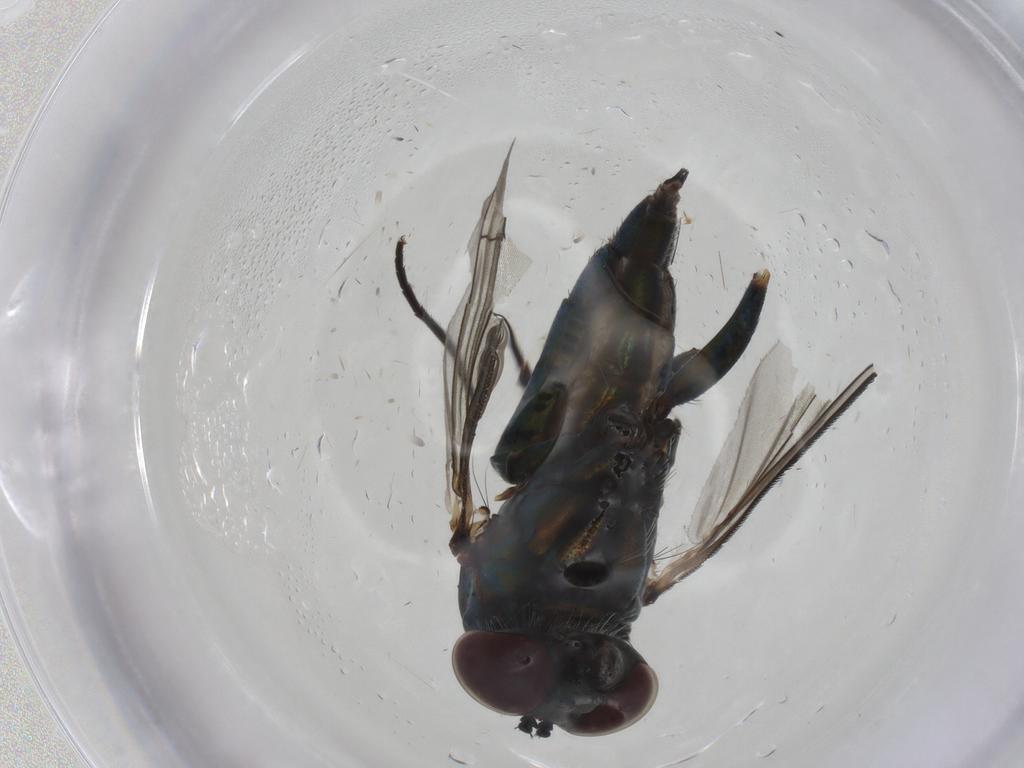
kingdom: Animalia
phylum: Arthropoda
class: Insecta
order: Diptera
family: Dolichopodidae
